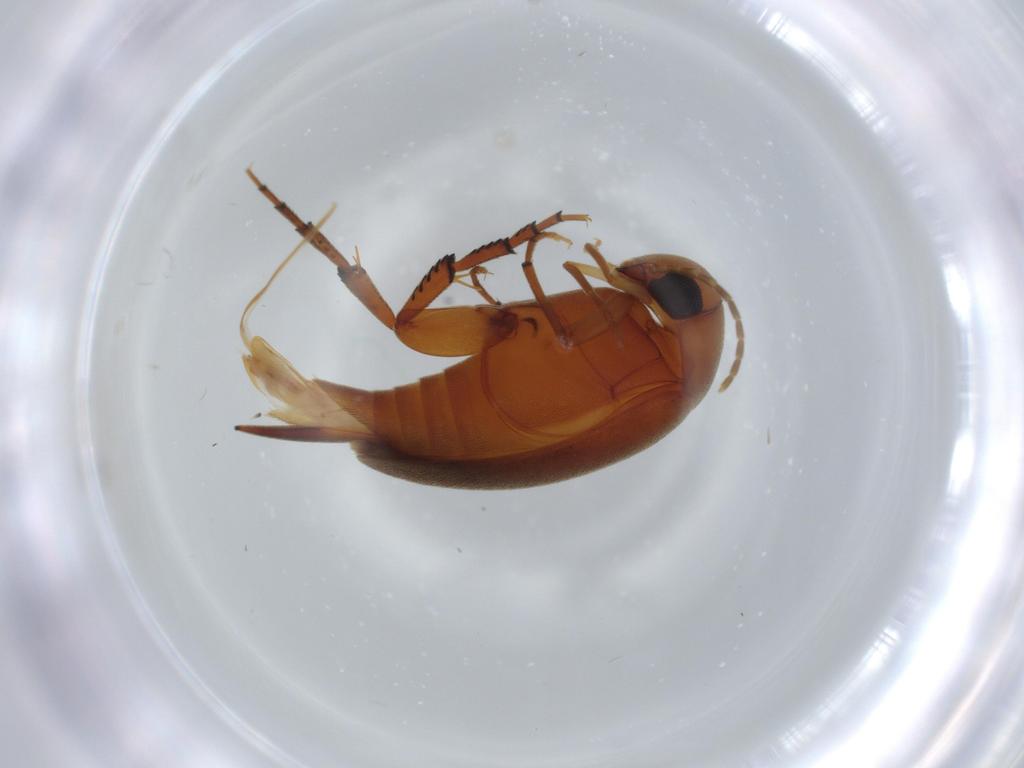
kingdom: Animalia
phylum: Arthropoda
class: Insecta
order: Coleoptera
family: Mordellidae
